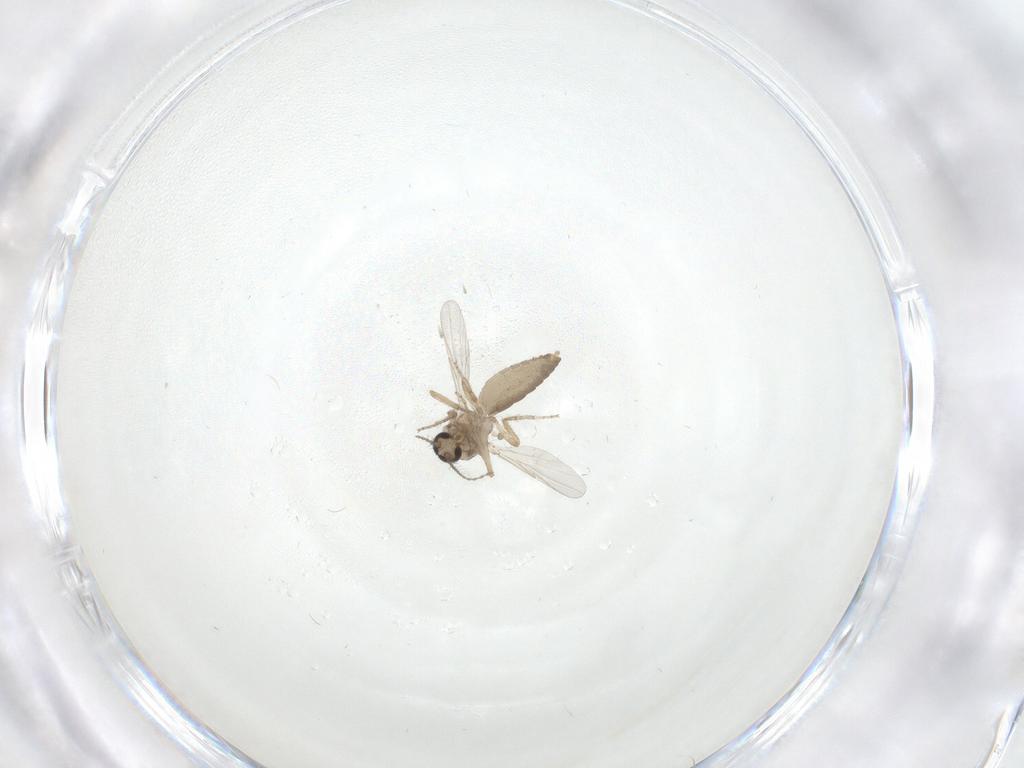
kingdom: Animalia
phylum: Arthropoda
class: Insecta
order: Diptera
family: Ceratopogonidae
